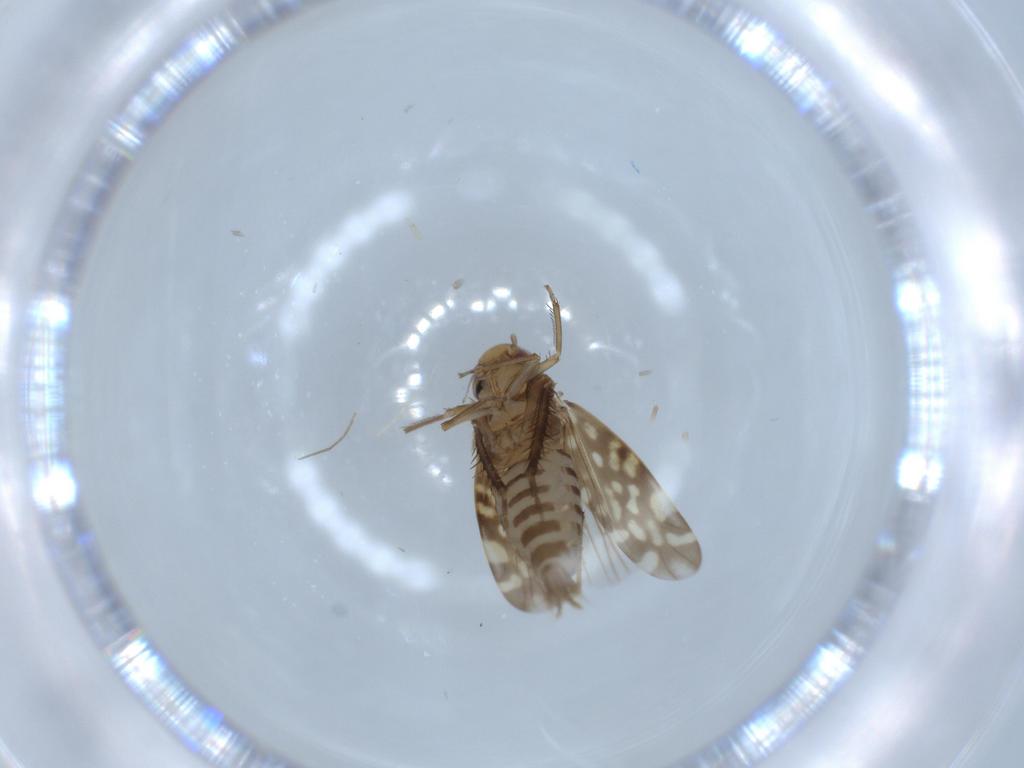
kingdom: Animalia
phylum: Arthropoda
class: Insecta
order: Hemiptera
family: Cicadellidae
